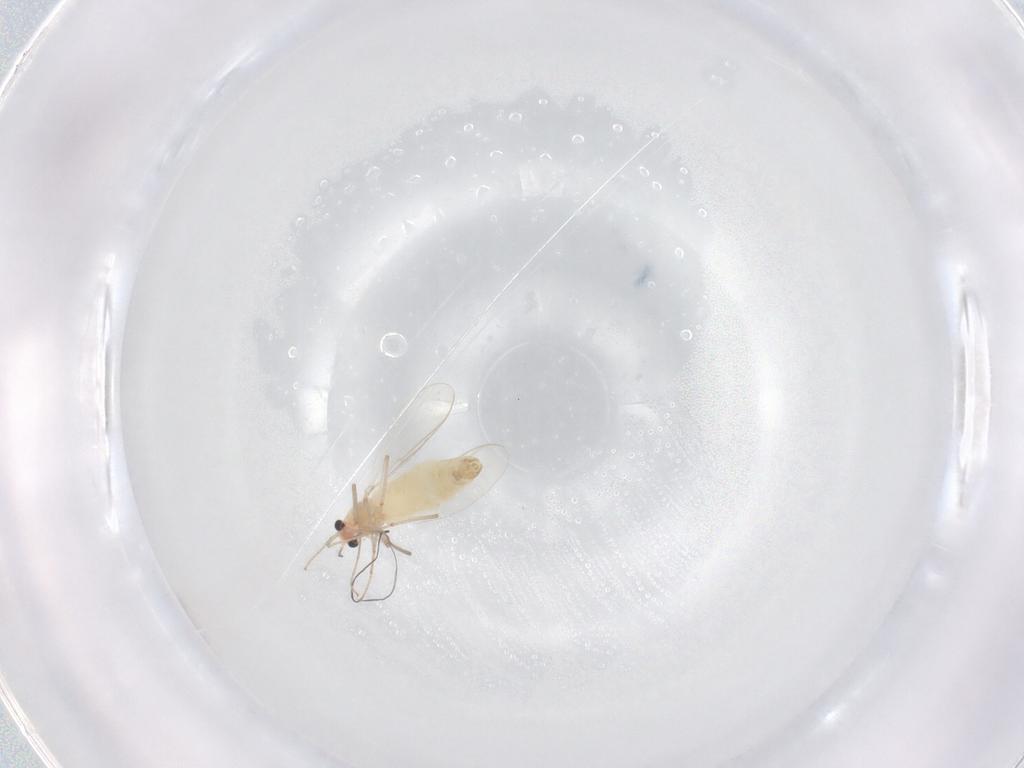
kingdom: Animalia
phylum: Arthropoda
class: Insecta
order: Diptera
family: Chironomidae
